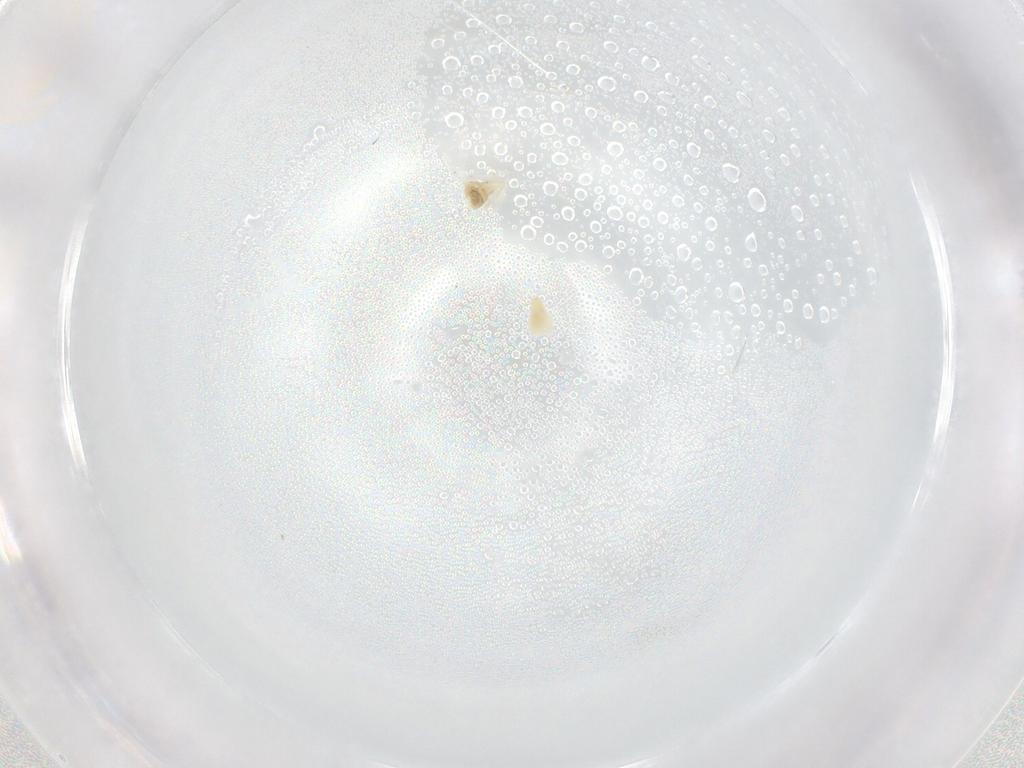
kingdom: Animalia
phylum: Arthropoda
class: Insecta
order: Hemiptera
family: Aleyrodidae
